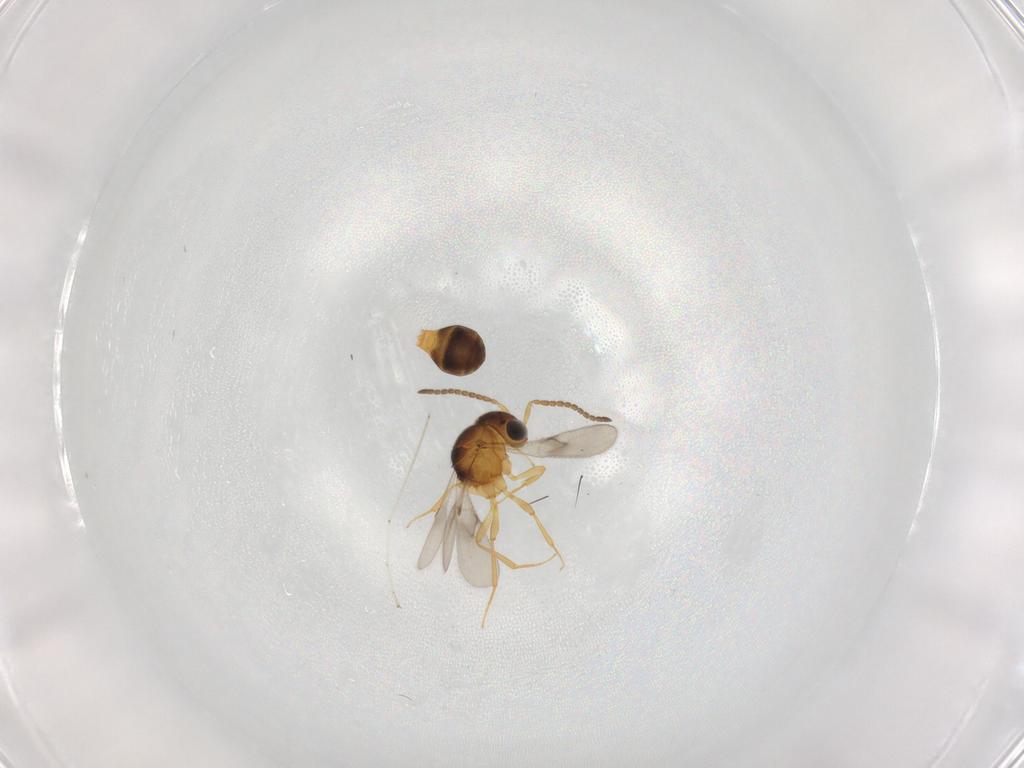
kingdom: Animalia
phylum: Arthropoda
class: Insecta
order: Hymenoptera
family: Scelionidae
